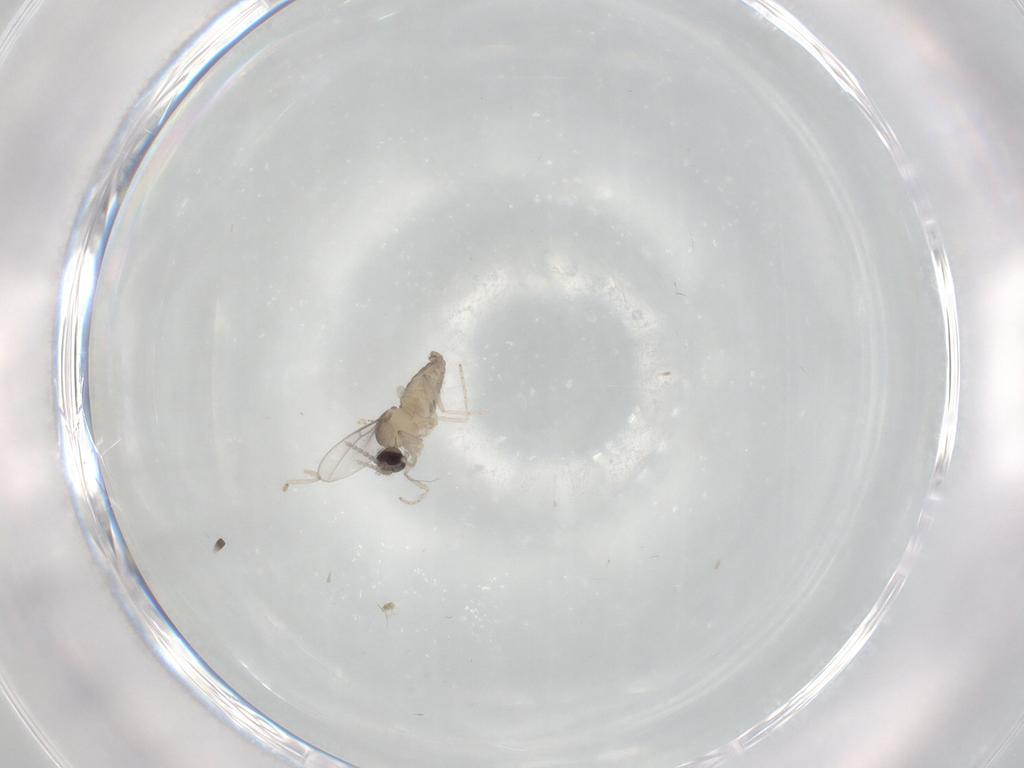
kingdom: Animalia
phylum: Arthropoda
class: Insecta
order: Diptera
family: Cecidomyiidae
